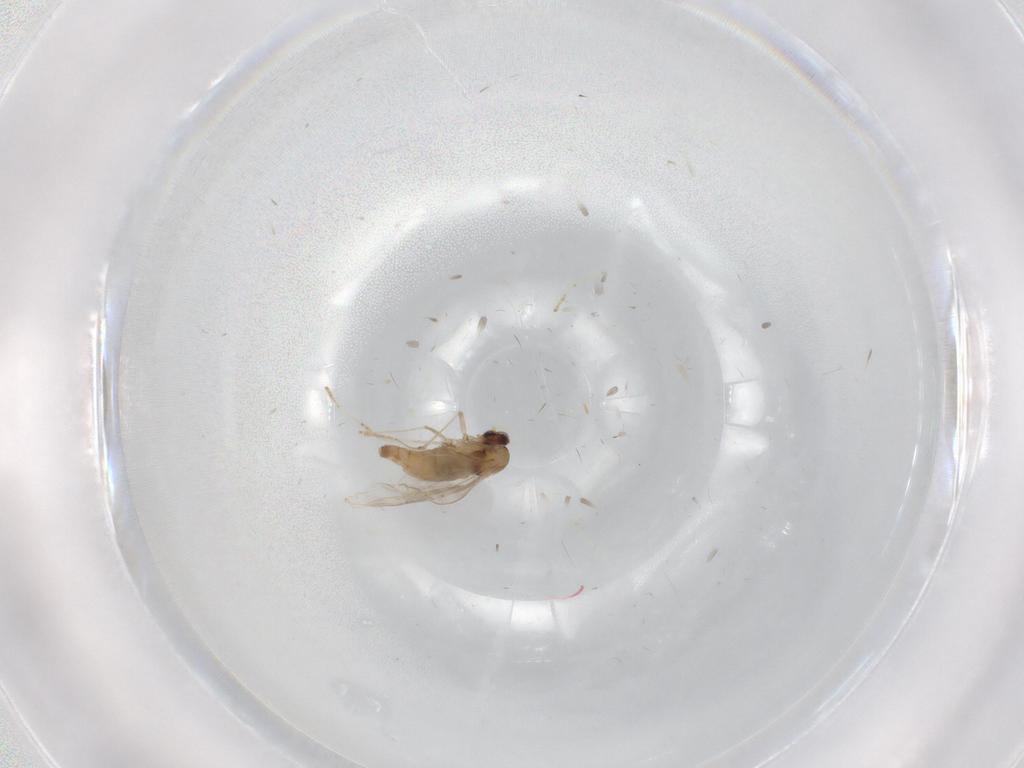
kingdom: Animalia
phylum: Arthropoda
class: Insecta
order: Diptera
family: Cecidomyiidae
